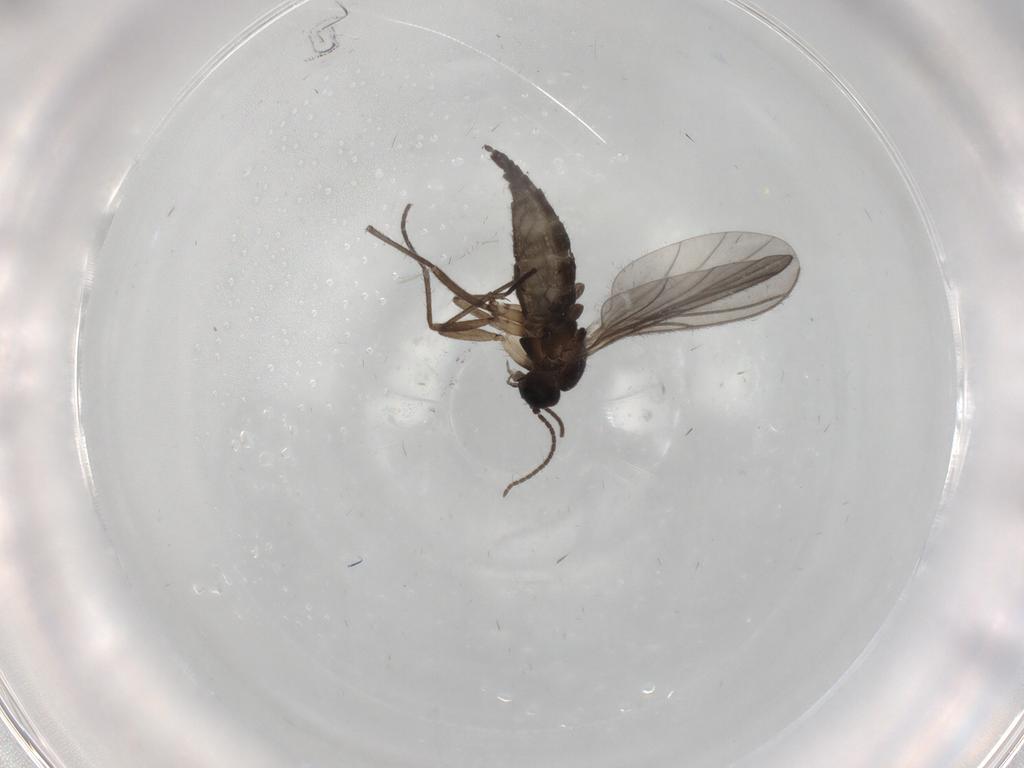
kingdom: Animalia
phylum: Arthropoda
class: Insecta
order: Diptera
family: Sciaridae
